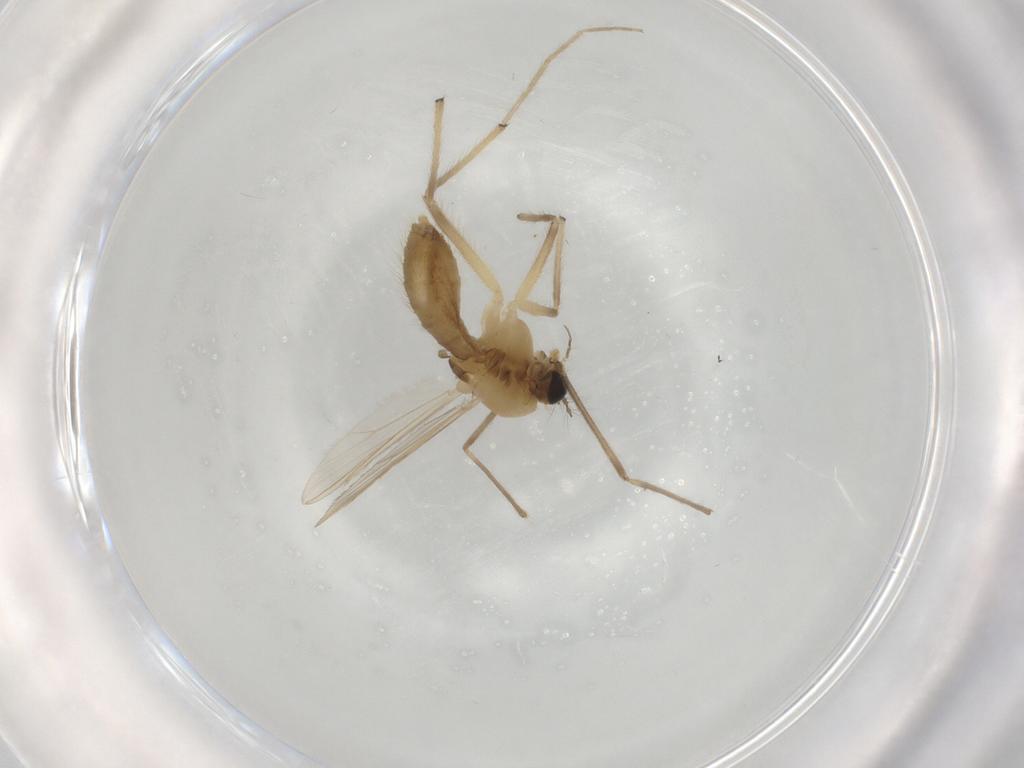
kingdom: Animalia
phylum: Arthropoda
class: Insecta
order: Diptera
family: Chironomidae
